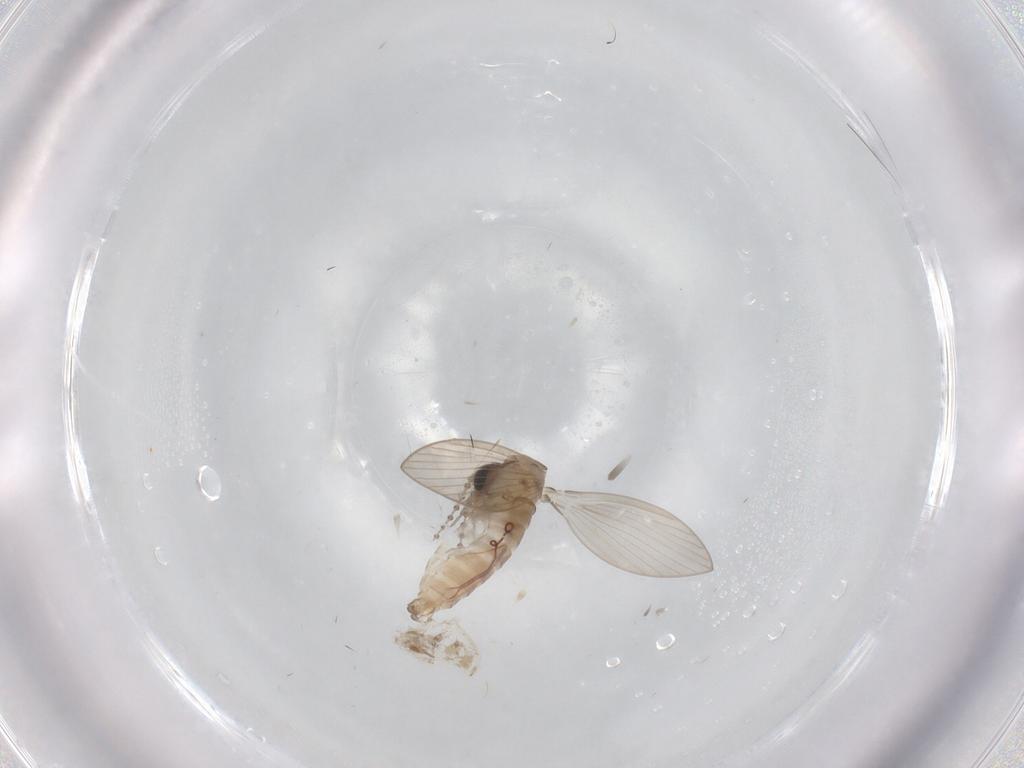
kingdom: Animalia
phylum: Arthropoda
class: Insecta
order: Diptera
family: Psychodidae
